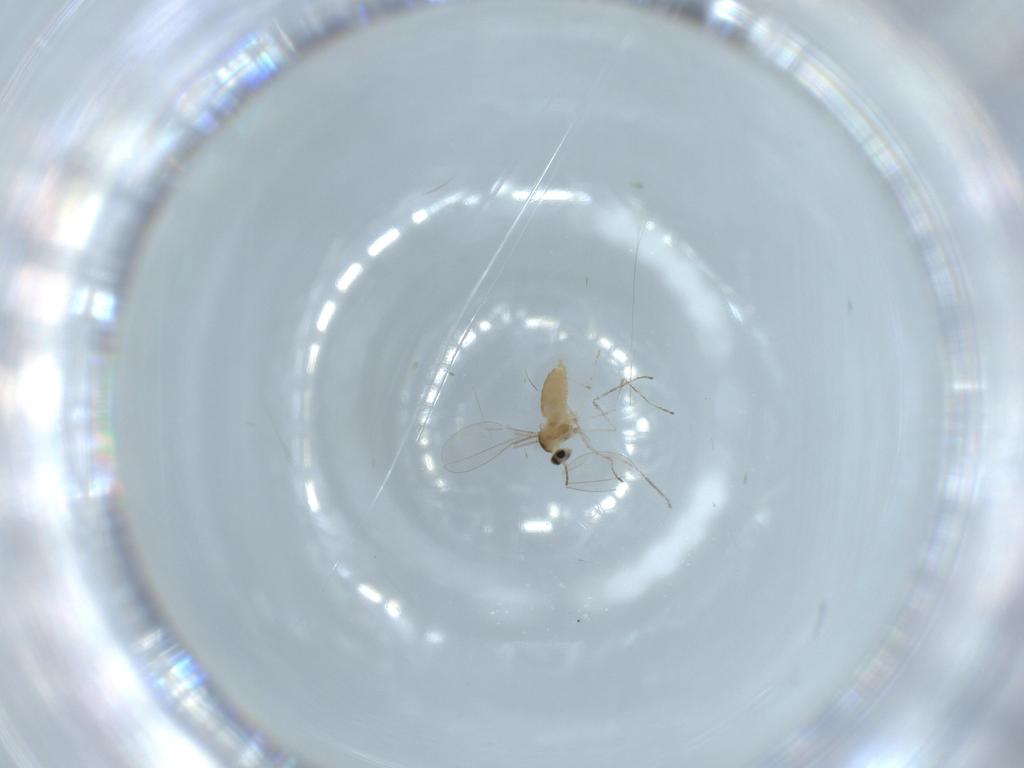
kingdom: Animalia
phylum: Arthropoda
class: Insecta
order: Diptera
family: Cecidomyiidae
